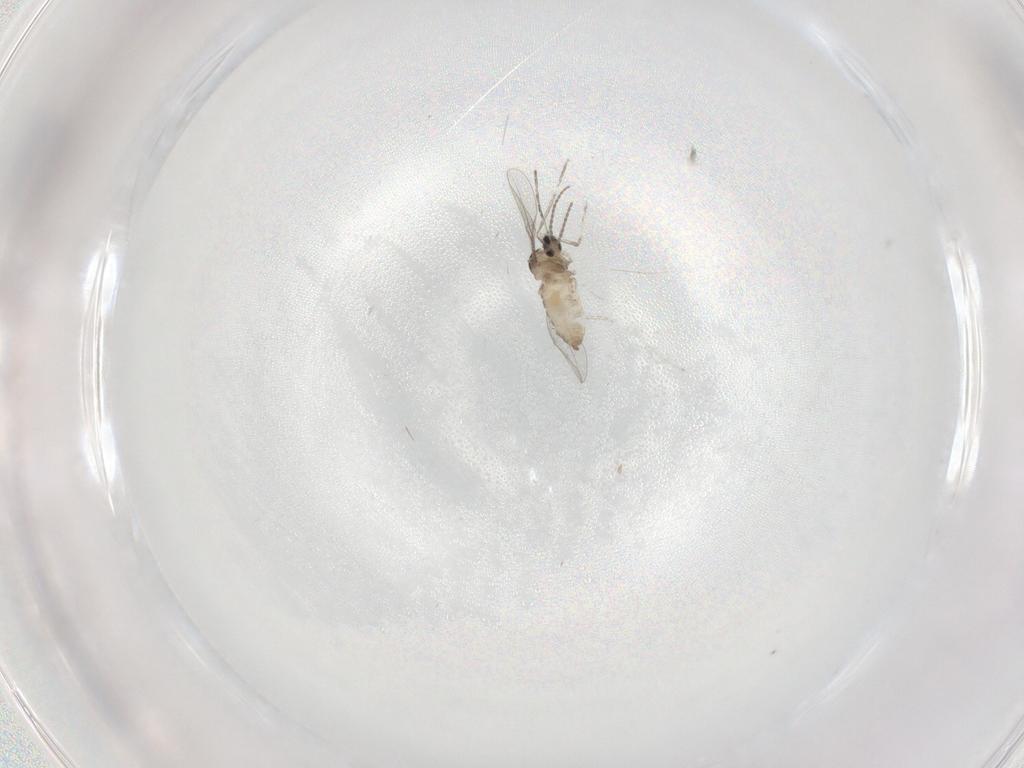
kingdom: Animalia
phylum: Arthropoda
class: Insecta
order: Diptera
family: Cecidomyiidae
